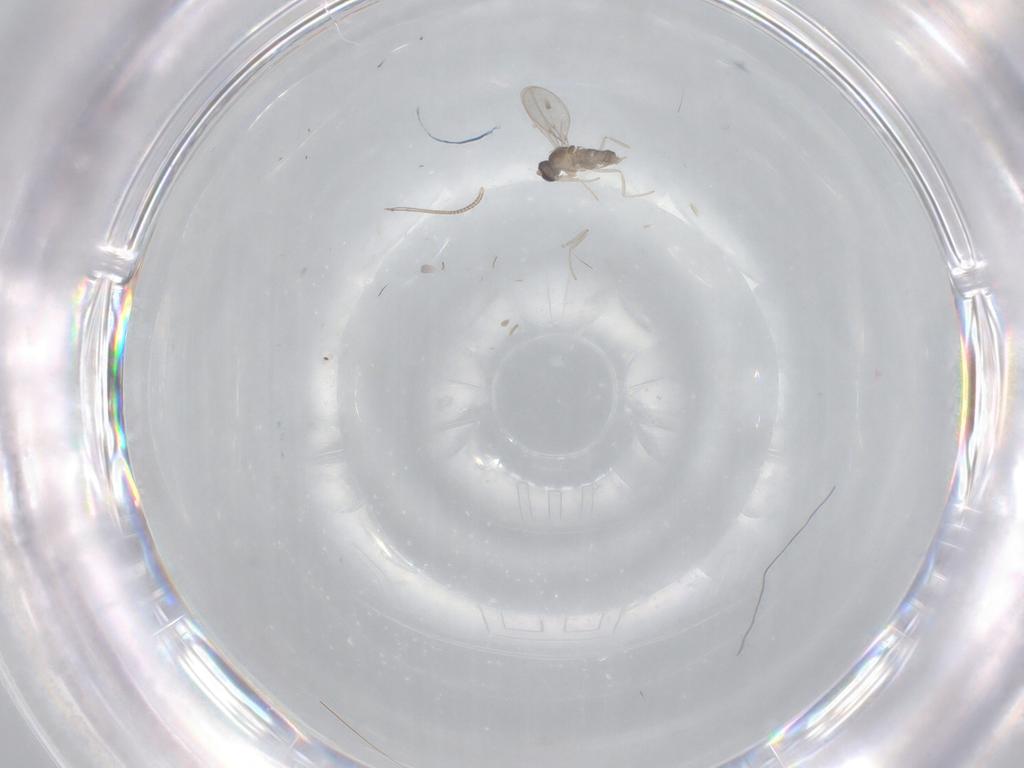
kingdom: Animalia
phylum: Arthropoda
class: Insecta
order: Diptera
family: Cecidomyiidae
